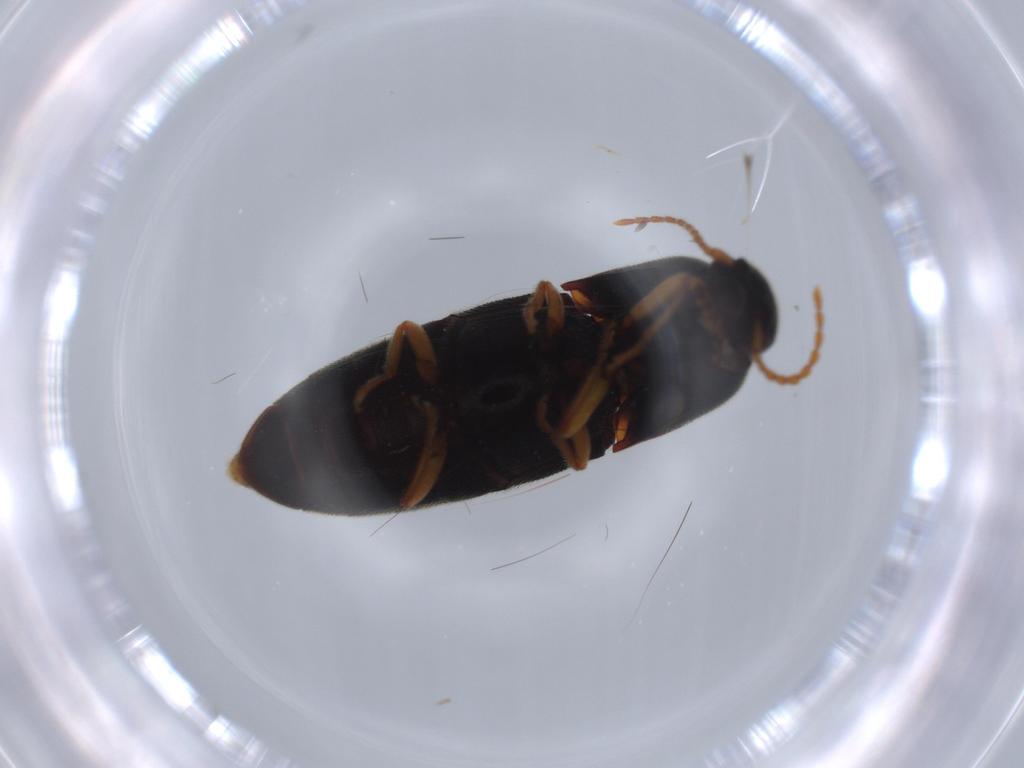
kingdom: Animalia
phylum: Arthropoda
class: Insecta
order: Coleoptera
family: Elateridae
